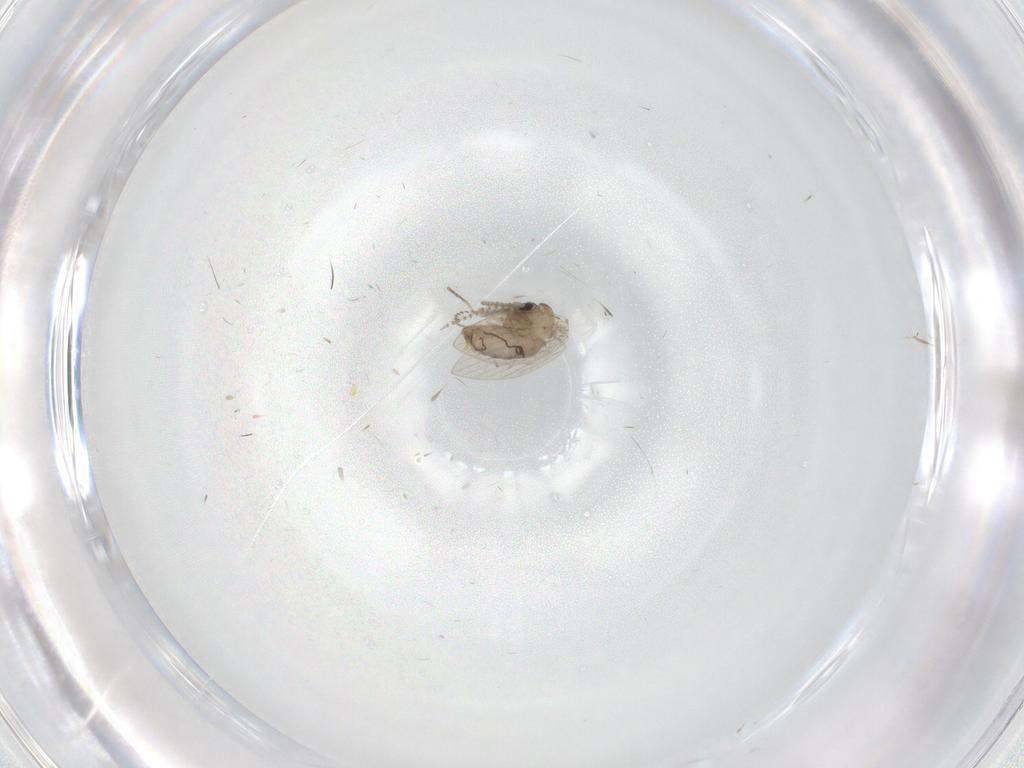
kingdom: Animalia
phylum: Arthropoda
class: Insecta
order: Diptera
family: Psychodidae
